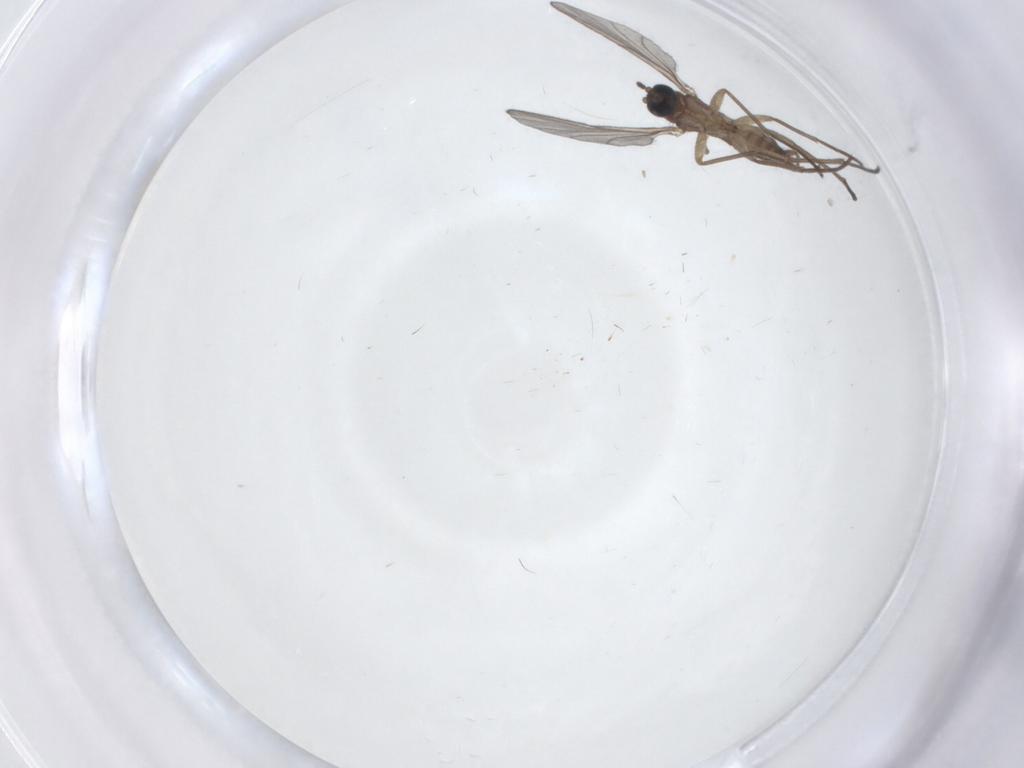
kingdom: Animalia
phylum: Arthropoda
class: Insecta
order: Diptera
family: Sciaridae
